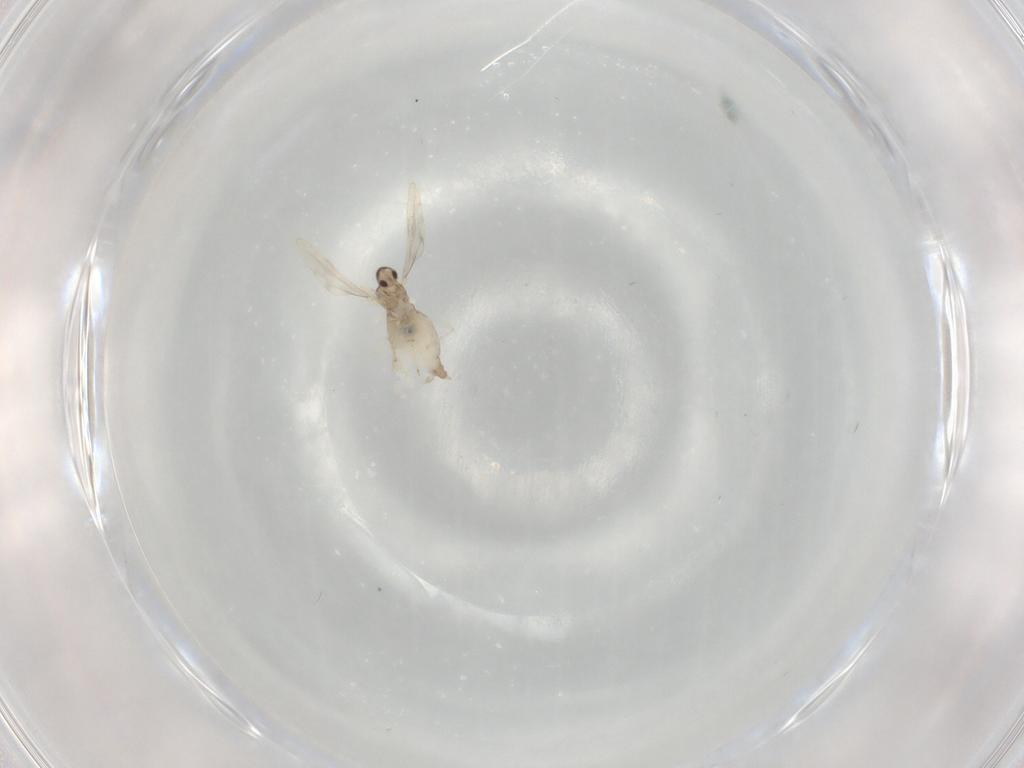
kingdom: Animalia
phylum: Arthropoda
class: Insecta
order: Diptera
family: Cecidomyiidae
